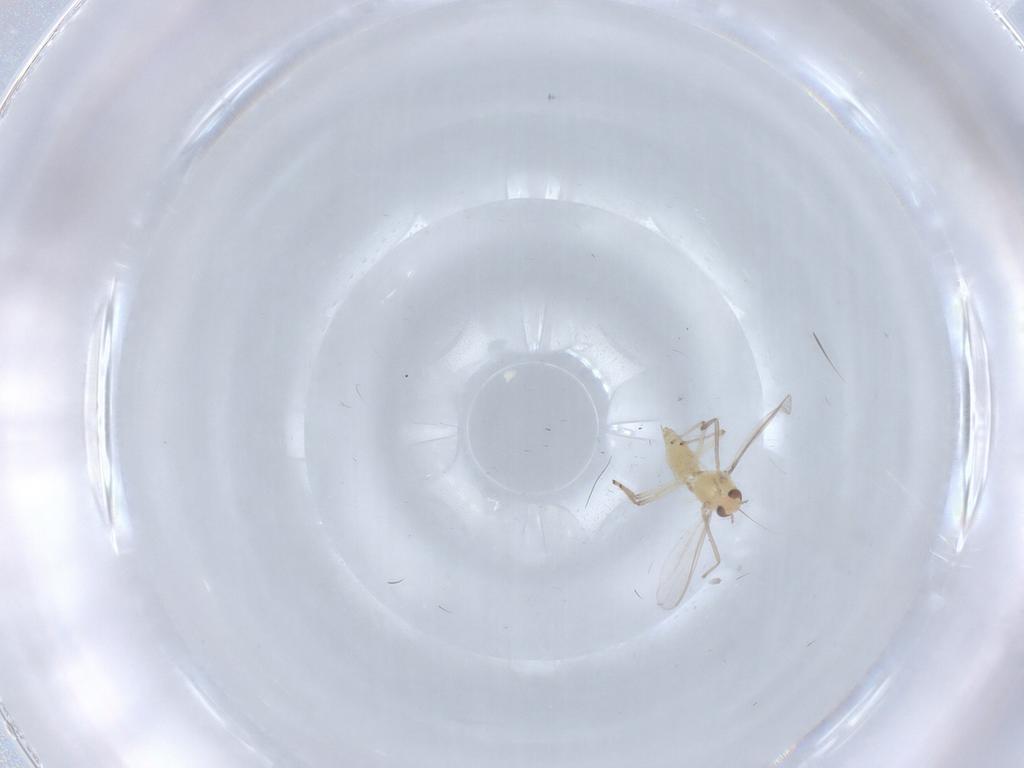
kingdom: Animalia
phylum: Arthropoda
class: Insecta
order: Diptera
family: Chironomidae
